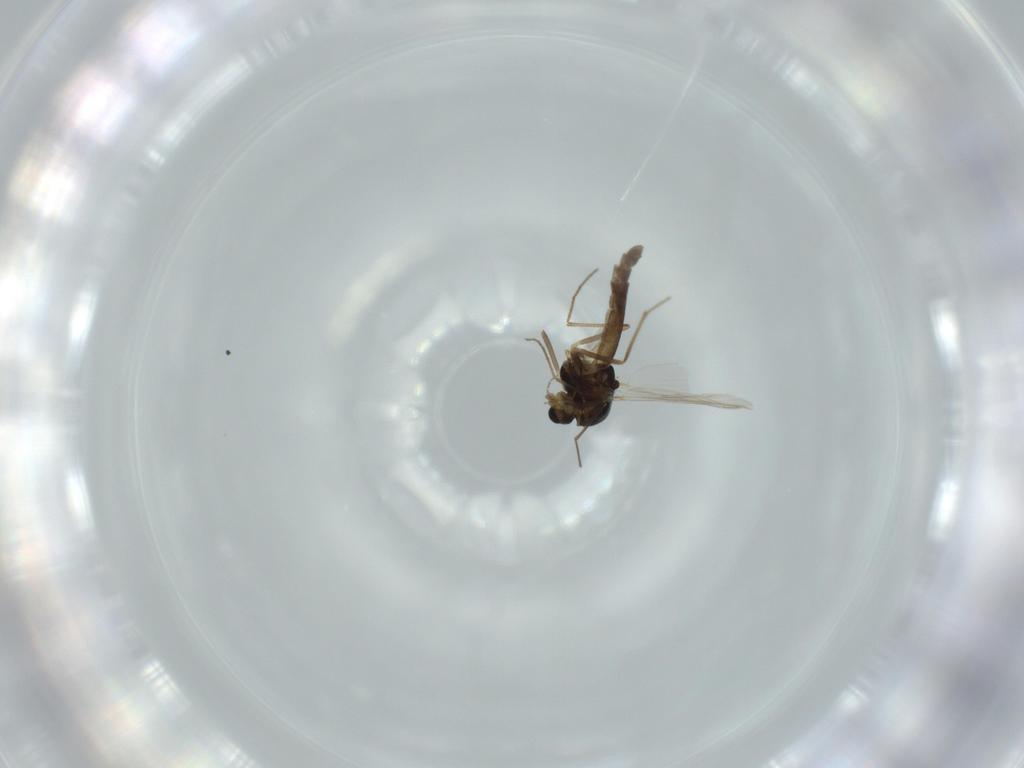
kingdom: Animalia
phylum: Arthropoda
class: Insecta
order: Diptera
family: Chironomidae
